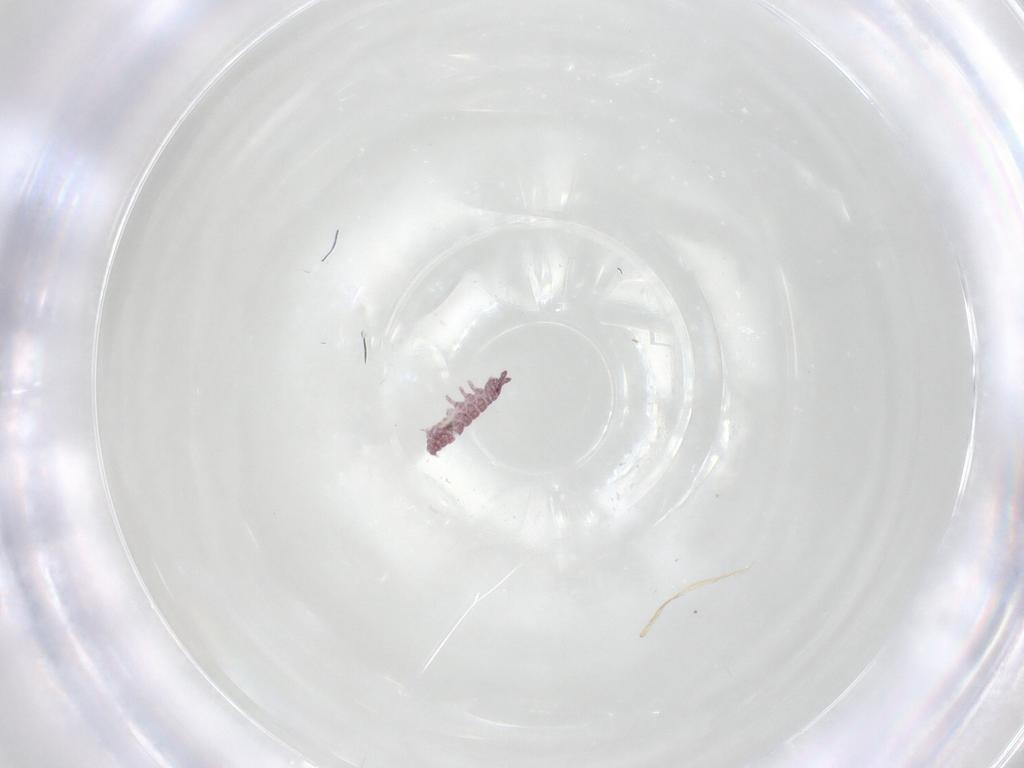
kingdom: Animalia
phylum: Arthropoda
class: Collembola
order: Poduromorpha
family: Hypogastruridae
